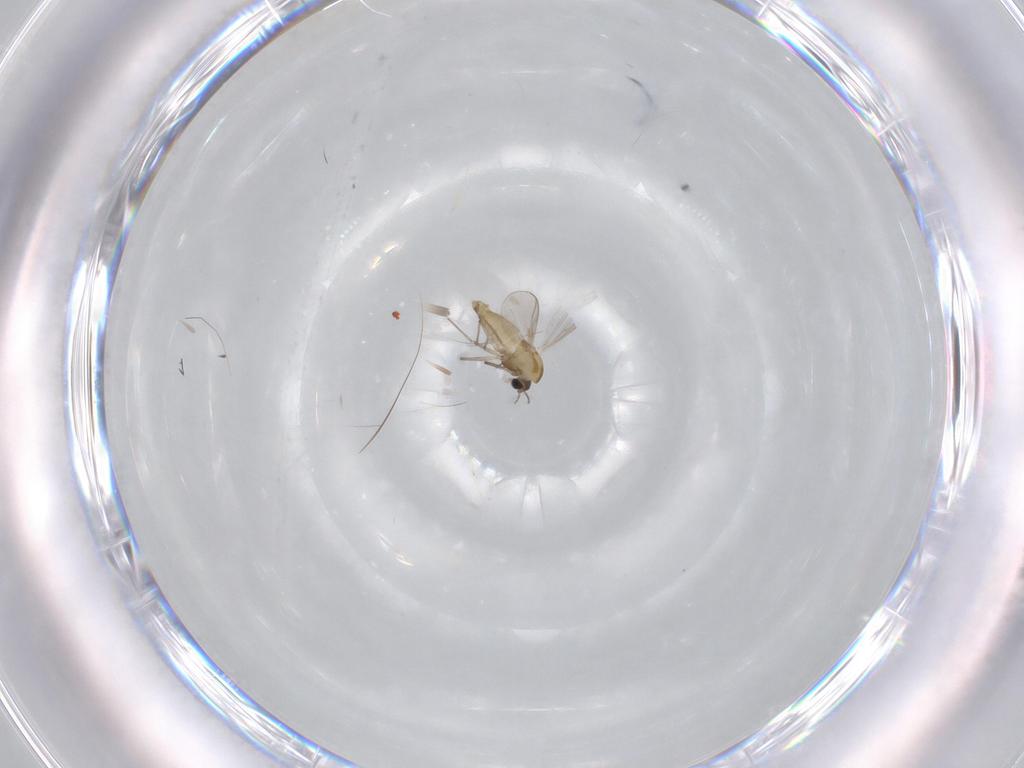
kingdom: Animalia
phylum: Arthropoda
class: Insecta
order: Diptera
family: Chironomidae
